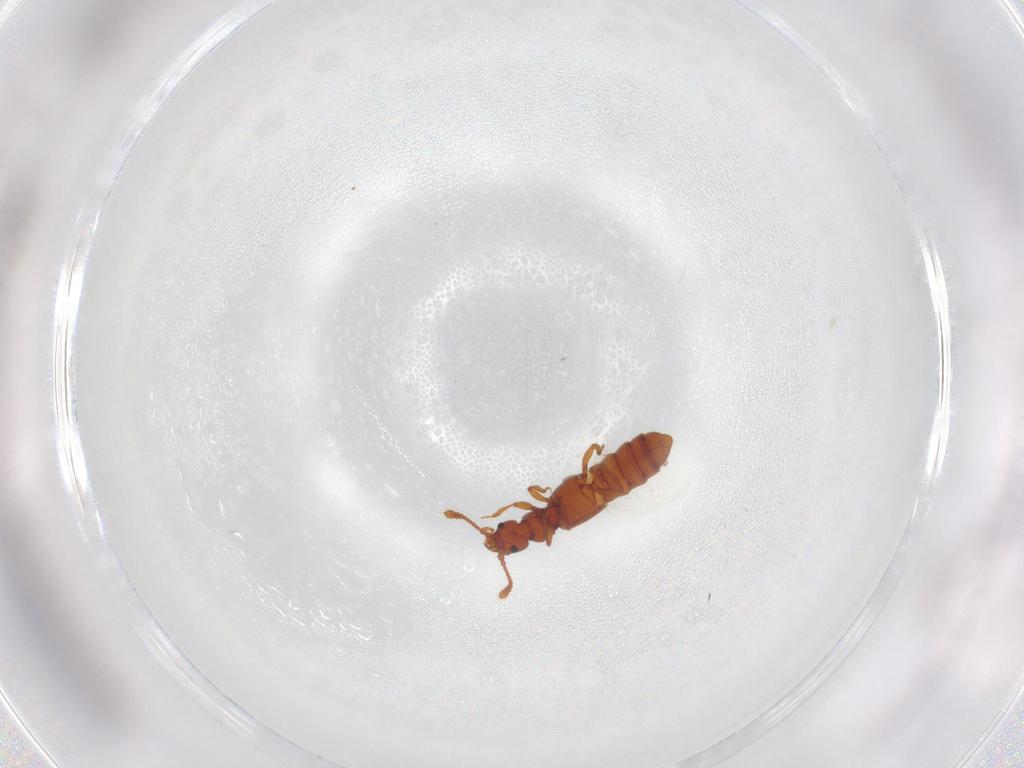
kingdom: Animalia
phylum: Arthropoda
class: Insecta
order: Coleoptera
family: Staphylinidae
